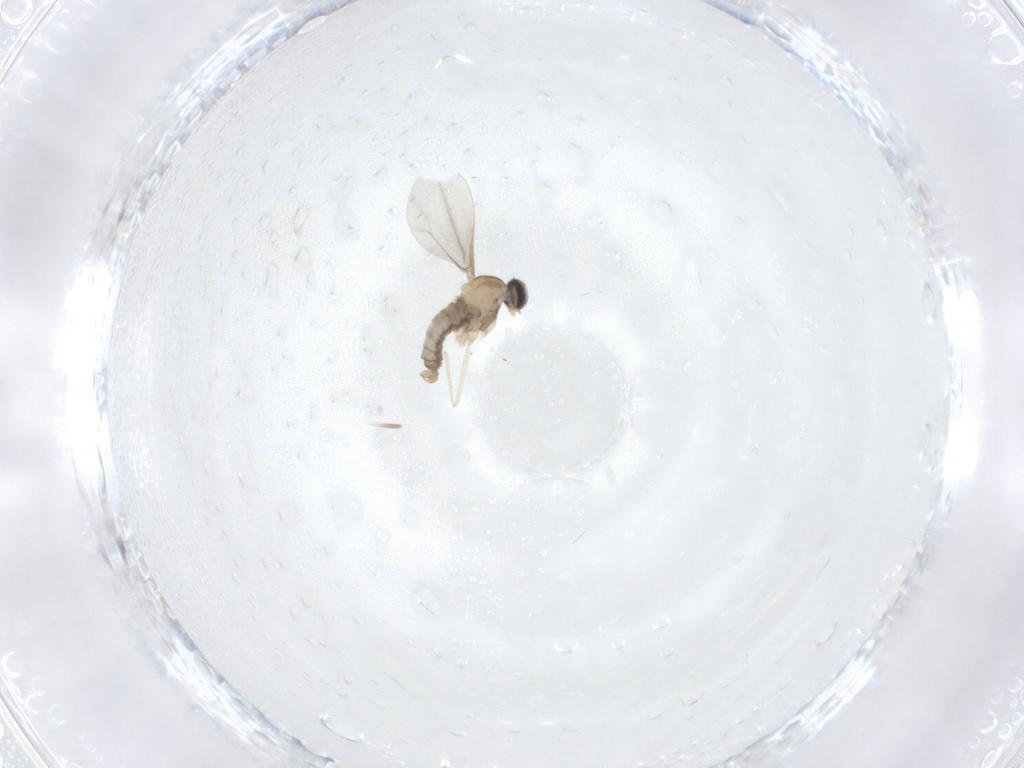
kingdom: Animalia
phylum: Arthropoda
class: Insecta
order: Diptera
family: Cecidomyiidae
